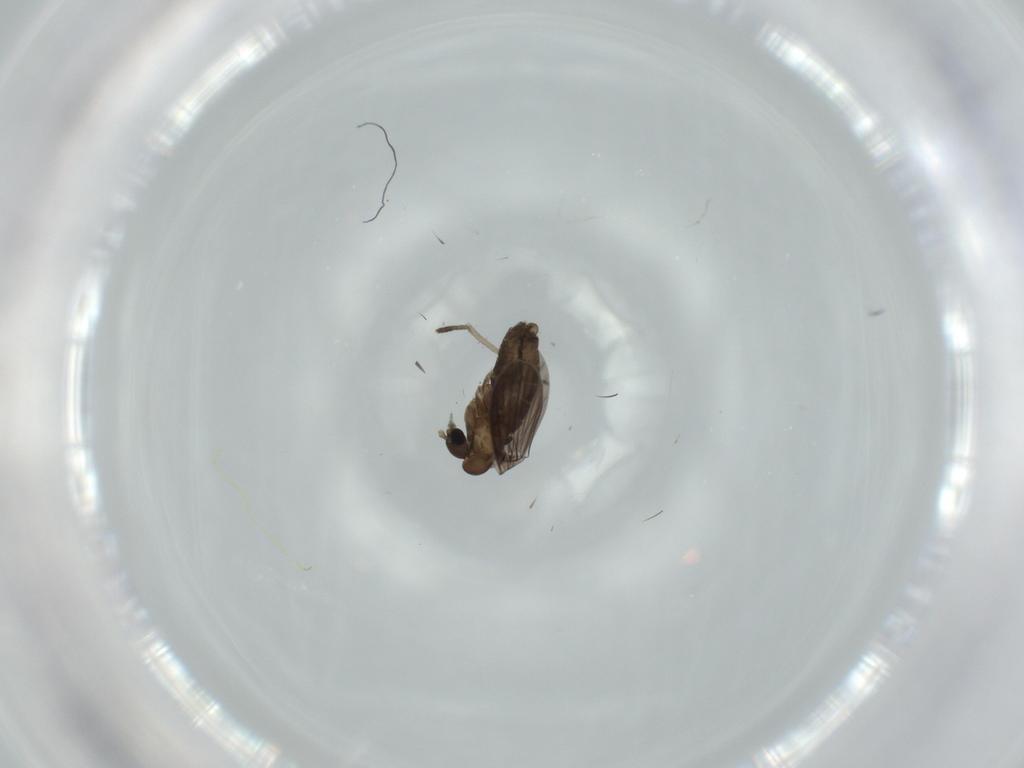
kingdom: Animalia
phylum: Arthropoda
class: Insecta
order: Diptera
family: Psychodidae
